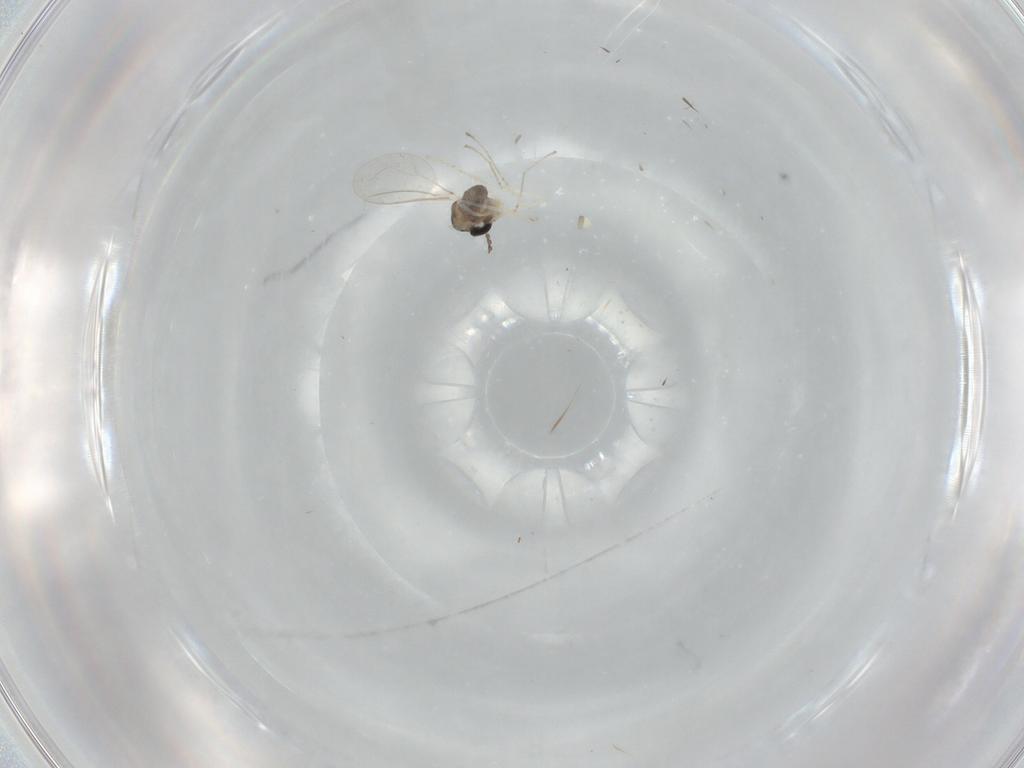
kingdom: Animalia
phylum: Arthropoda
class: Insecta
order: Diptera
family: Cecidomyiidae
